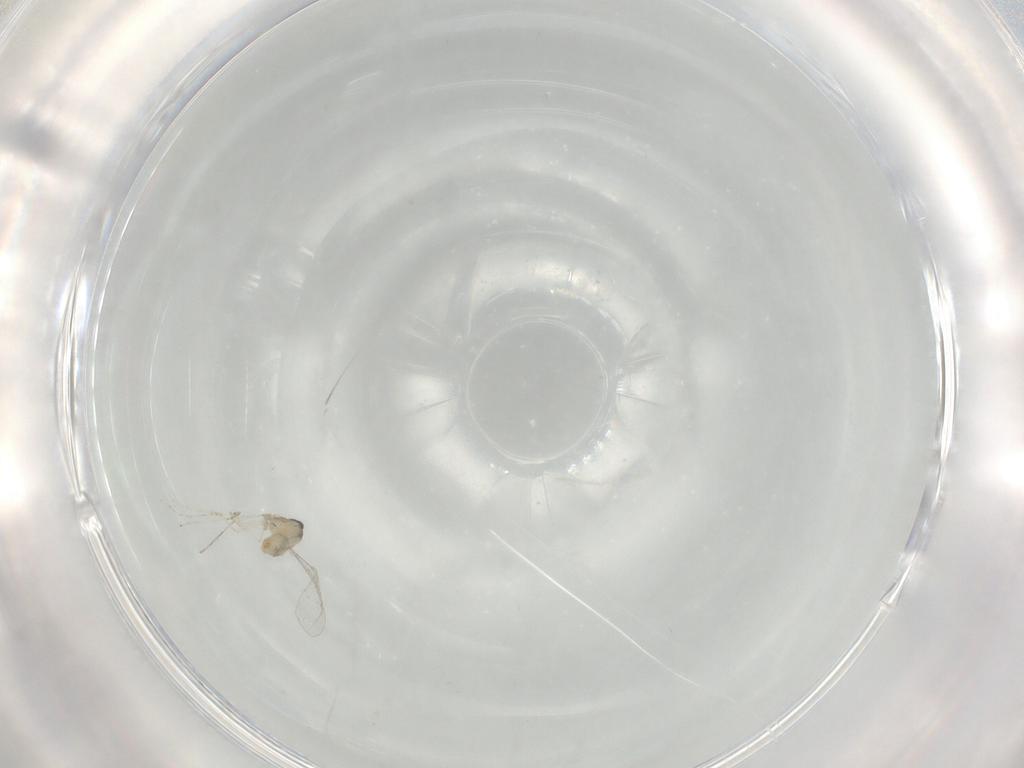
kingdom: Animalia
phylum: Arthropoda
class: Insecta
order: Diptera
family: Cecidomyiidae
